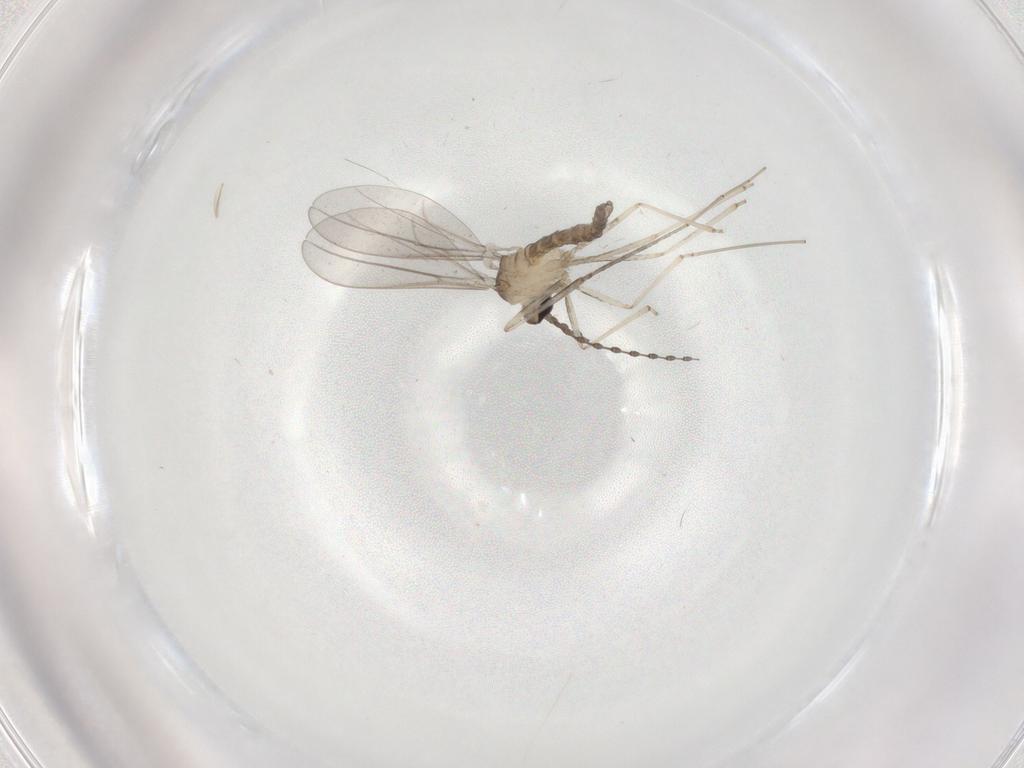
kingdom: Animalia
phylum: Arthropoda
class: Insecta
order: Diptera
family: Cecidomyiidae
